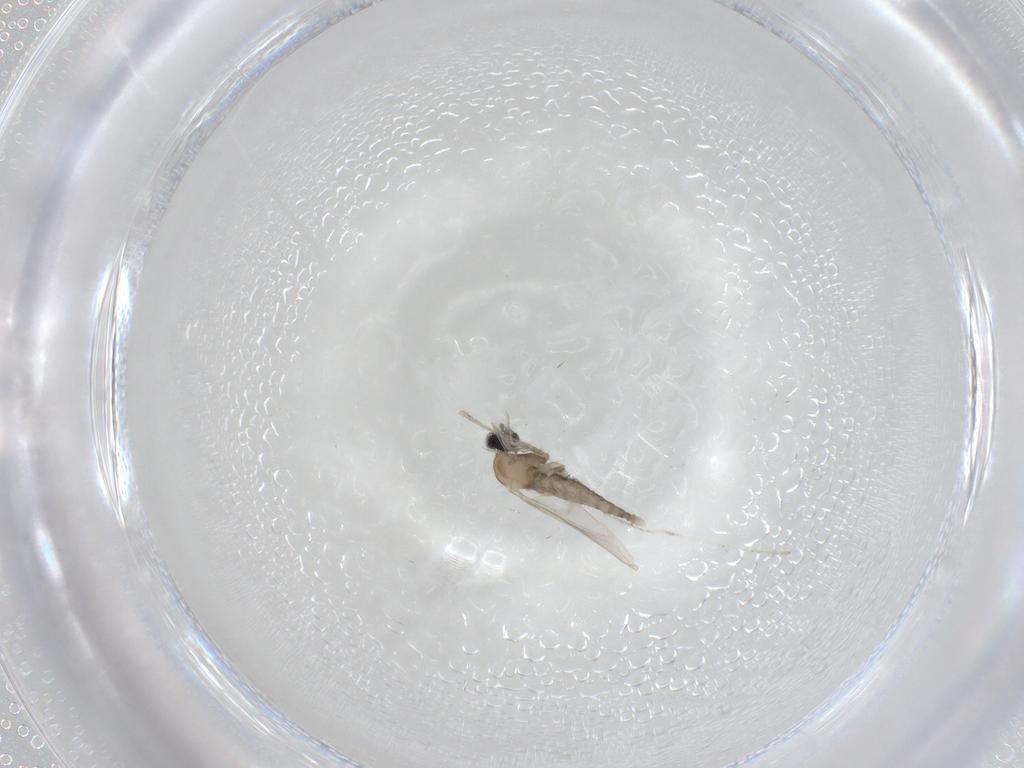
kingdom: Animalia
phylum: Arthropoda
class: Insecta
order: Diptera
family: Cecidomyiidae
